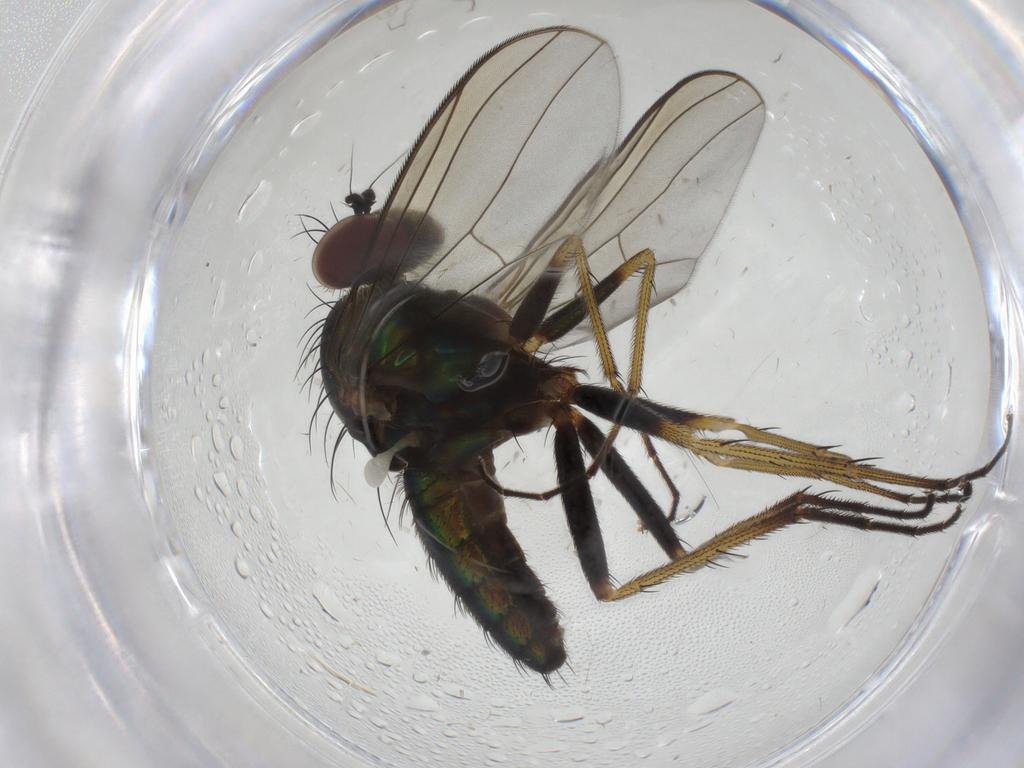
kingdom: Animalia
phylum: Arthropoda
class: Insecta
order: Diptera
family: Dolichopodidae
